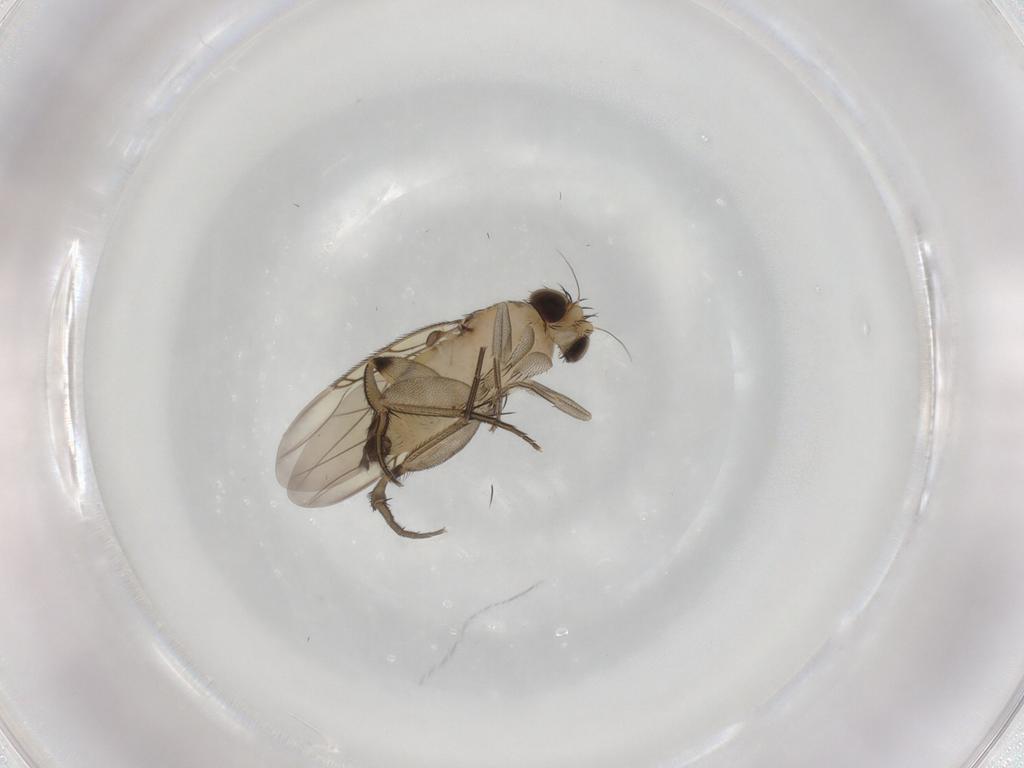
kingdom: Animalia
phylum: Arthropoda
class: Insecta
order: Diptera
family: Phoridae
